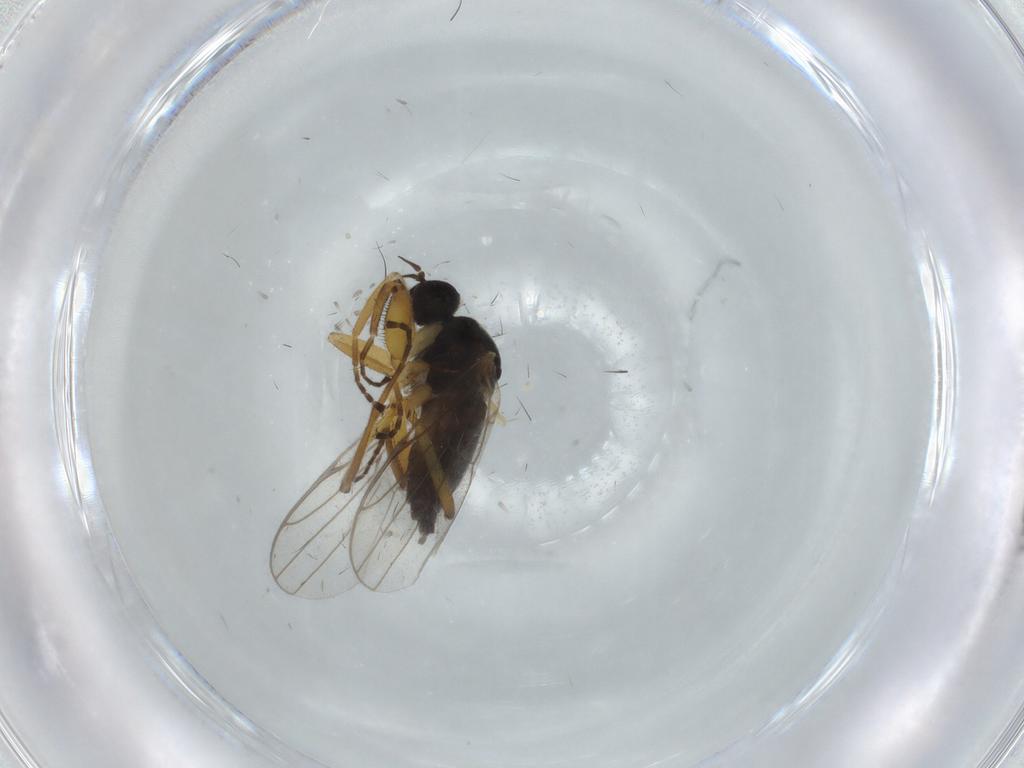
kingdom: Animalia
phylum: Arthropoda
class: Insecta
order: Diptera
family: Hybotidae
